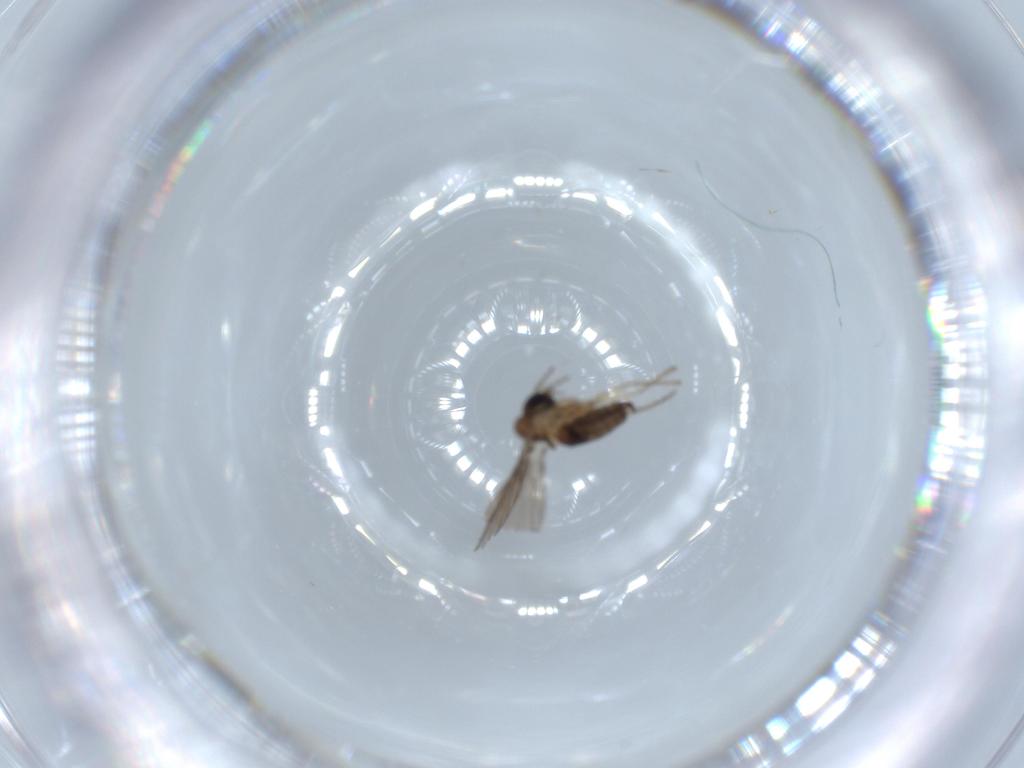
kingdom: Animalia
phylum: Arthropoda
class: Insecta
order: Diptera
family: Psychodidae
